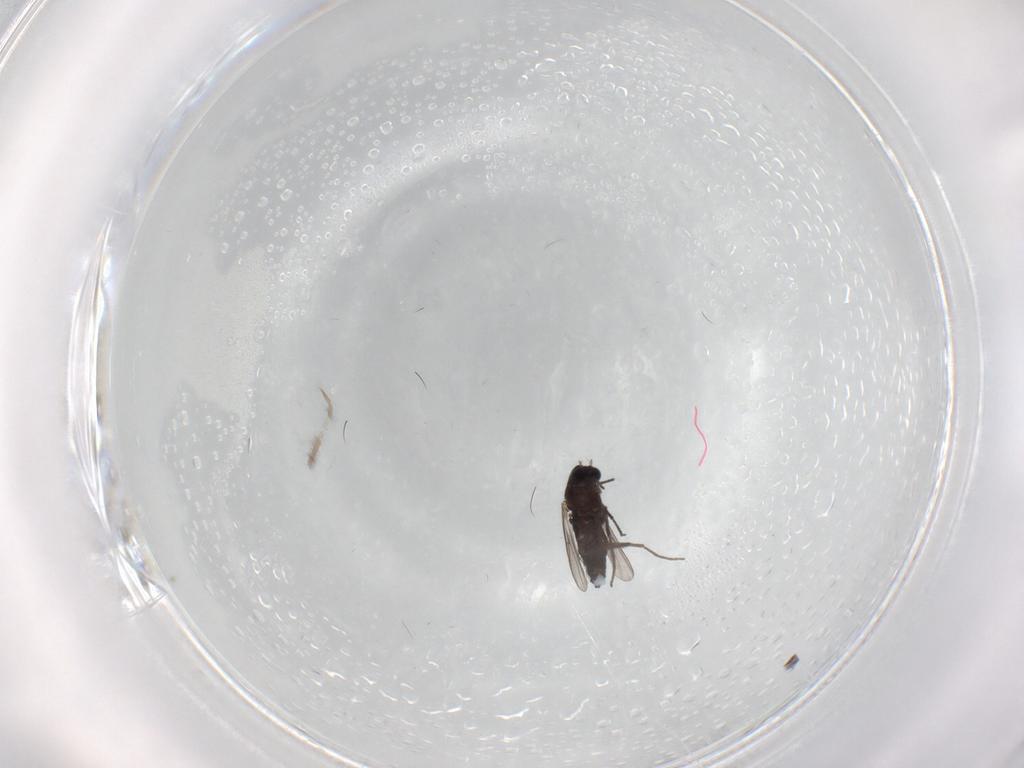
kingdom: Animalia
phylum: Arthropoda
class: Insecta
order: Diptera
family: Chironomidae
